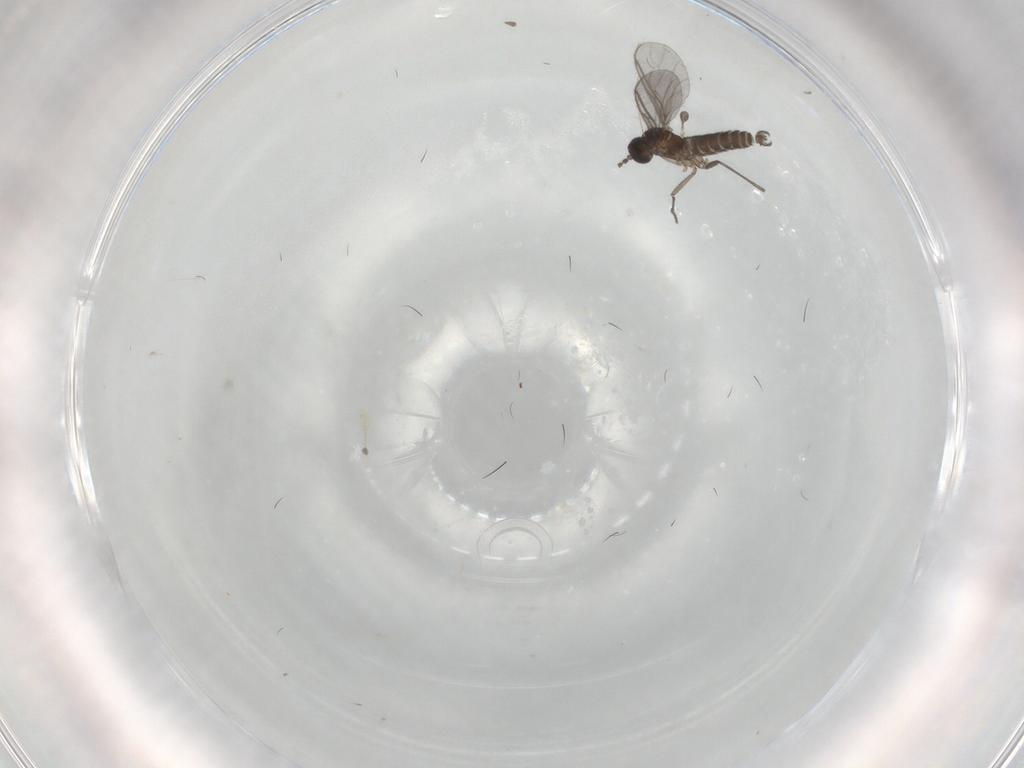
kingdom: Animalia
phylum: Arthropoda
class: Insecta
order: Diptera
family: Sciaridae
